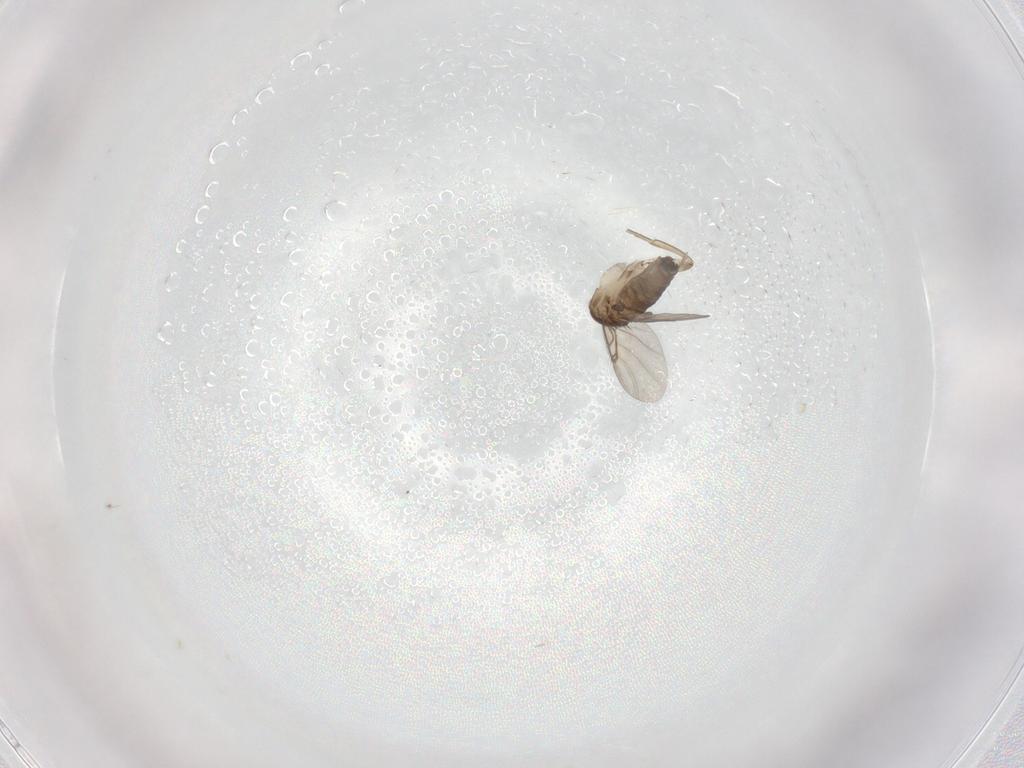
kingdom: Animalia
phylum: Arthropoda
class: Insecta
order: Diptera
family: Phoridae
